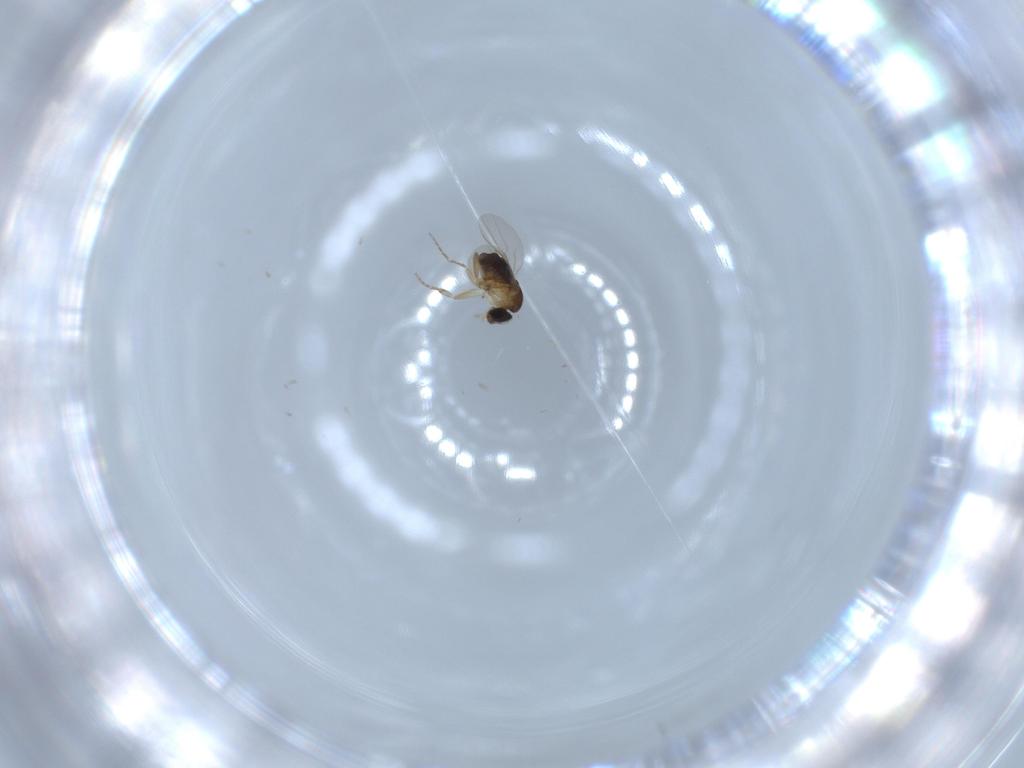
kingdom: Animalia
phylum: Arthropoda
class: Insecta
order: Diptera
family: Phoridae
